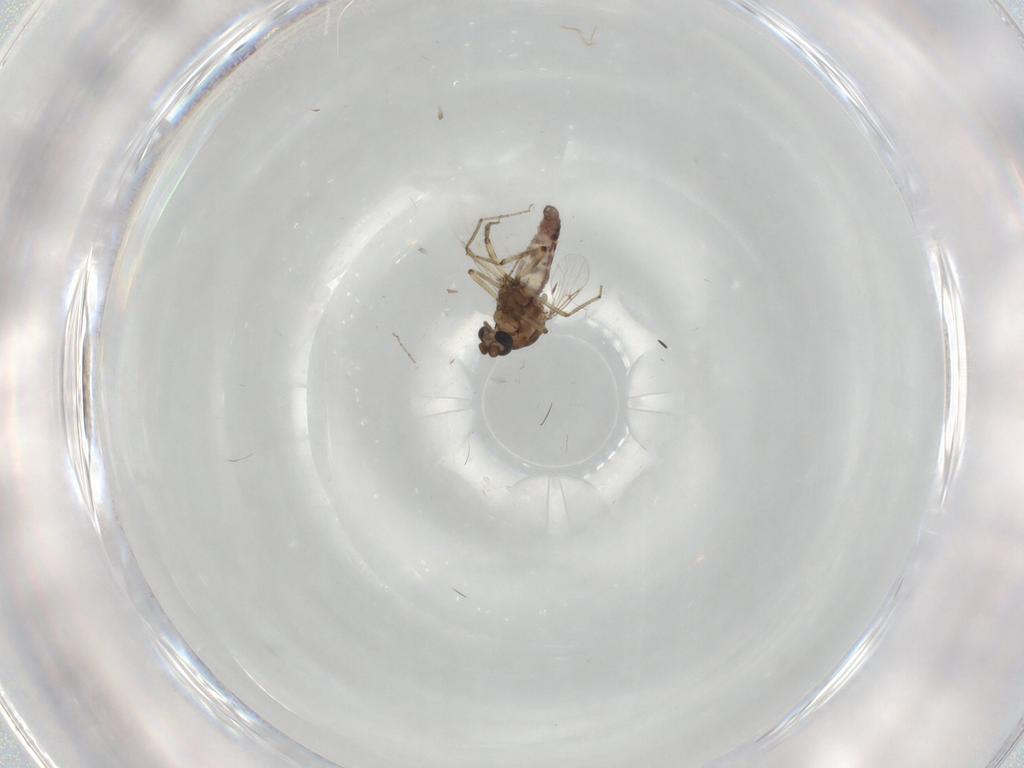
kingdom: Animalia
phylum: Arthropoda
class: Insecta
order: Diptera
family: Ceratopogonidae
